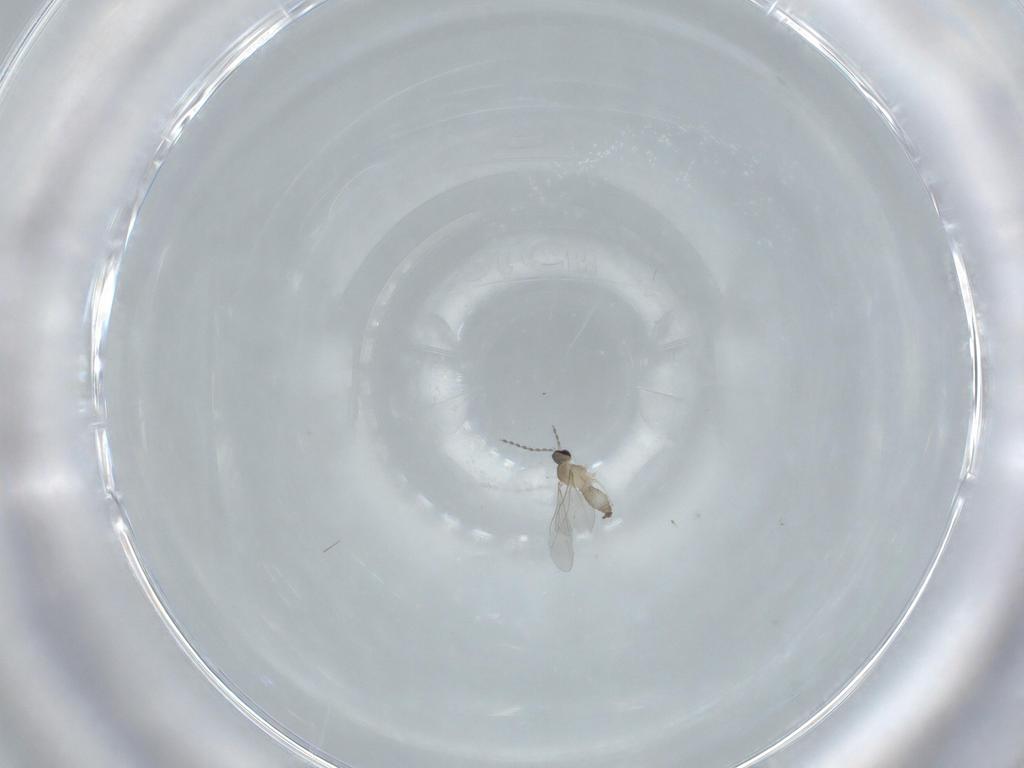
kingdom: Animalia
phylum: Arthropoda
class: Insecta
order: Diptera
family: Cecidomyiidae
